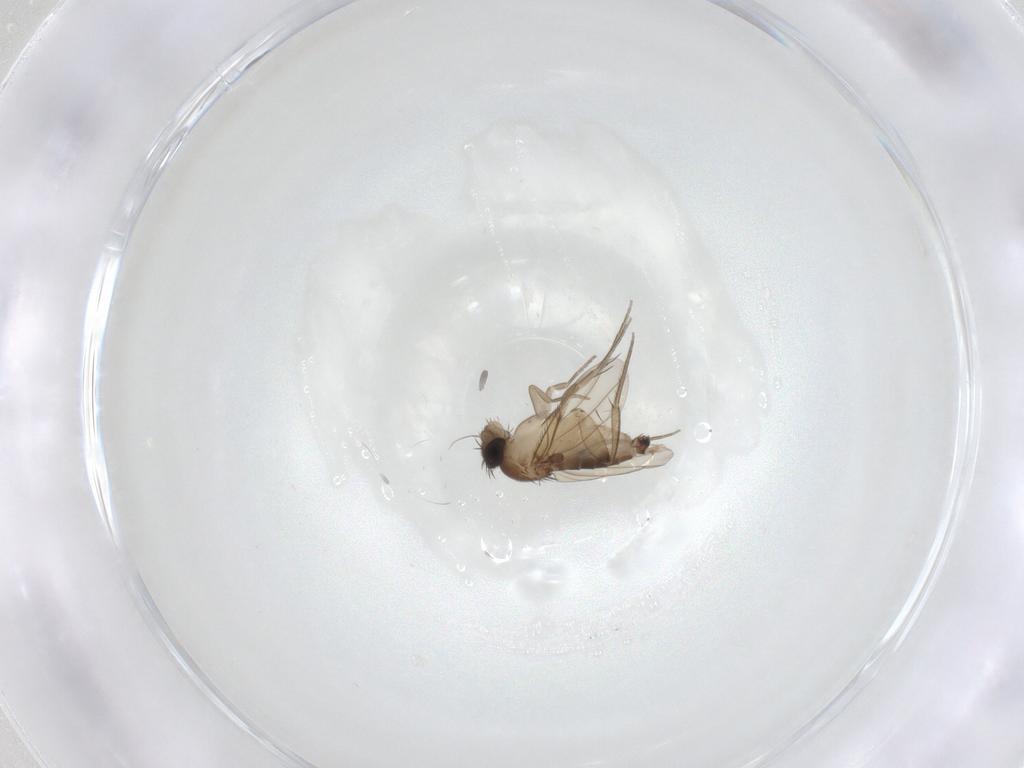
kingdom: Animalia
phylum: Arthropoda
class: Insecta
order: Diptera
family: Phoridae
